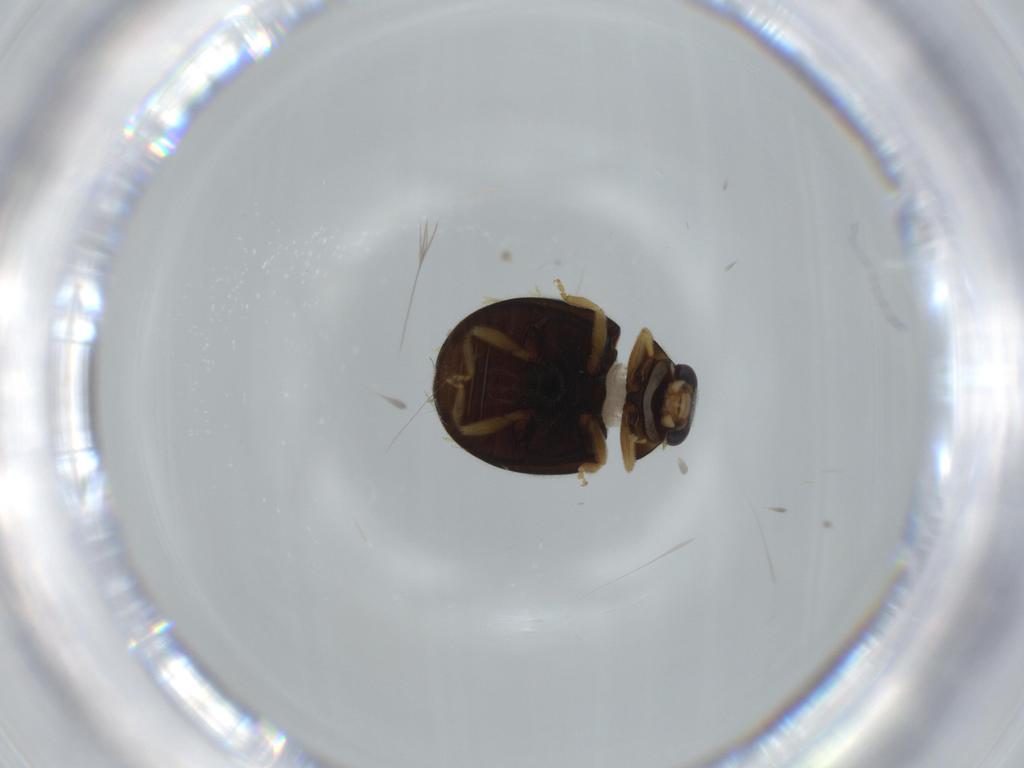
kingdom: Animalia
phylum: Arthropoda
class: Insecta
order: Coleoptera
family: Coccinellidae
